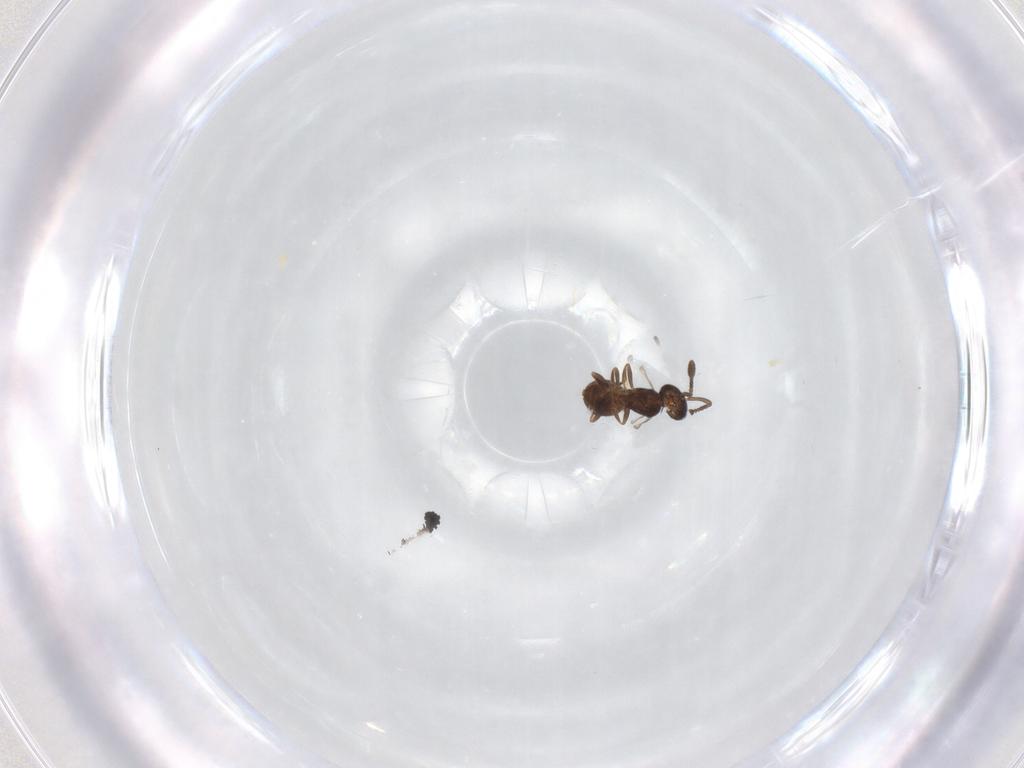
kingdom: Animalia
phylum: Arthropoda
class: Insecta
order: Hymenoptera
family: Scelionidae
